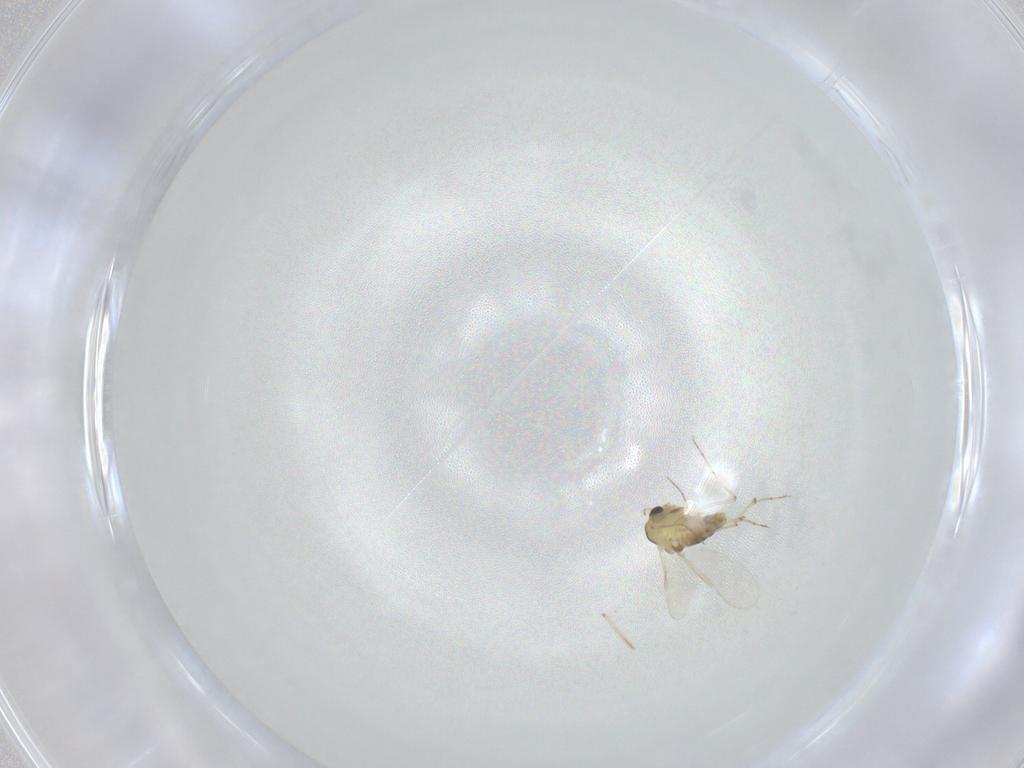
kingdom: Animalia
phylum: Arthropoda
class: Insecta
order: Diptera
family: Chironomidae
